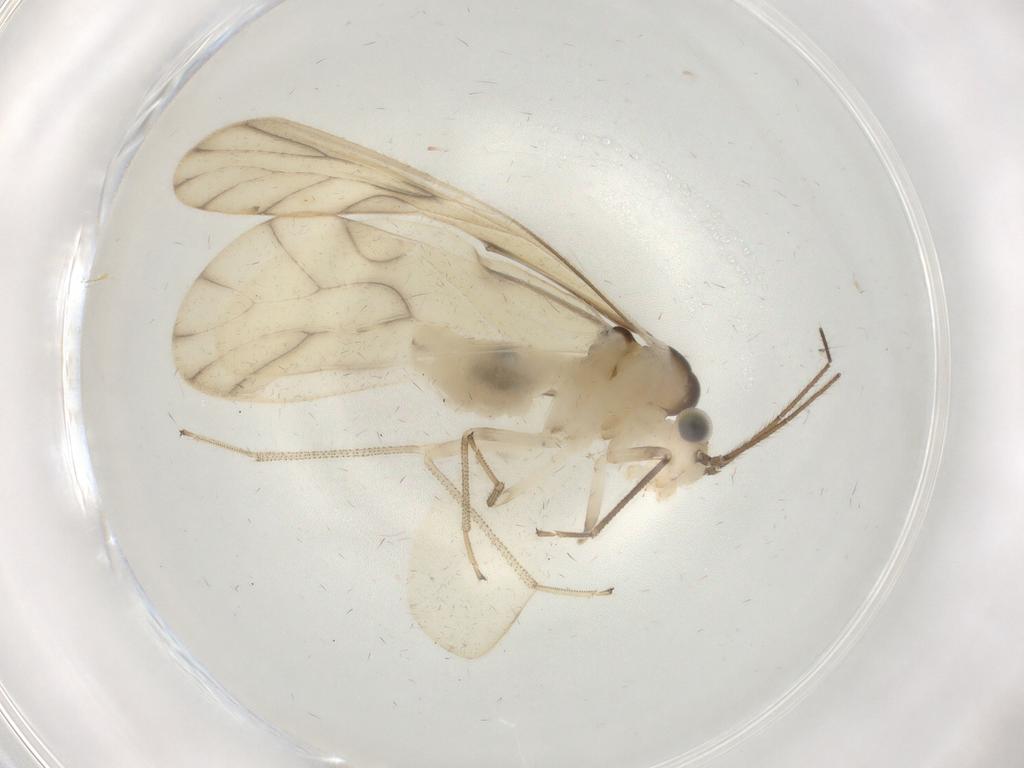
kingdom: Animalia
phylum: Arthropoda
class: Insecta
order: Psocodea
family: Caeciliusidae
